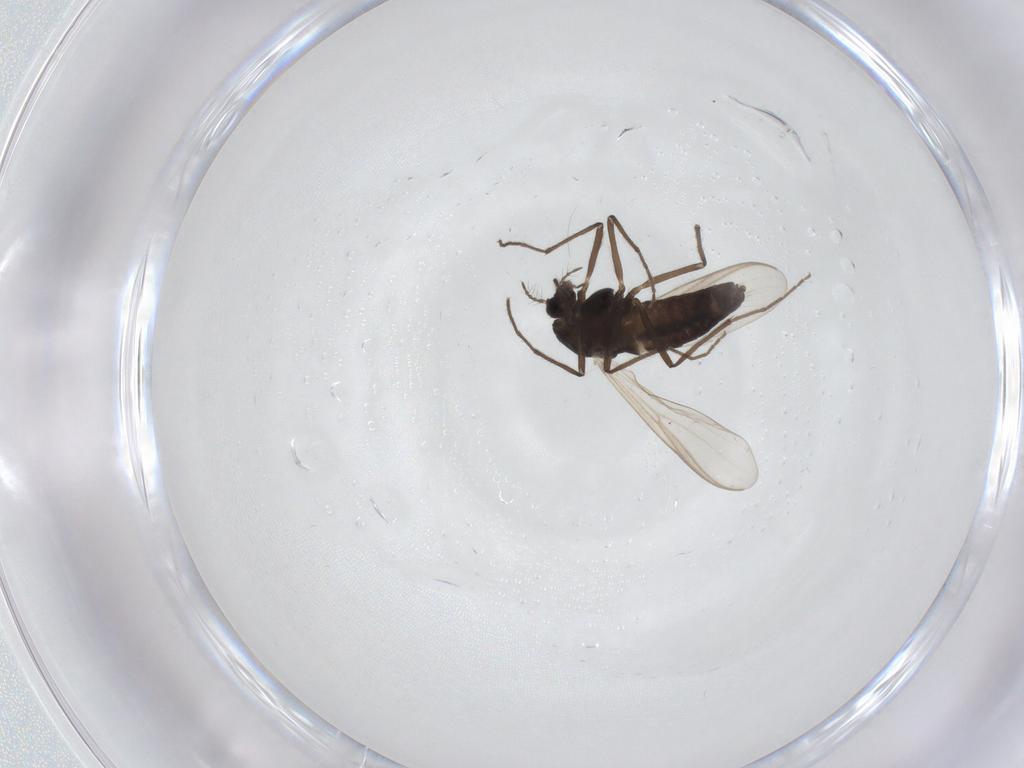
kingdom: Animalia
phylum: Arthropoda
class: Insecta
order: Diptera
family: Chironomidae
